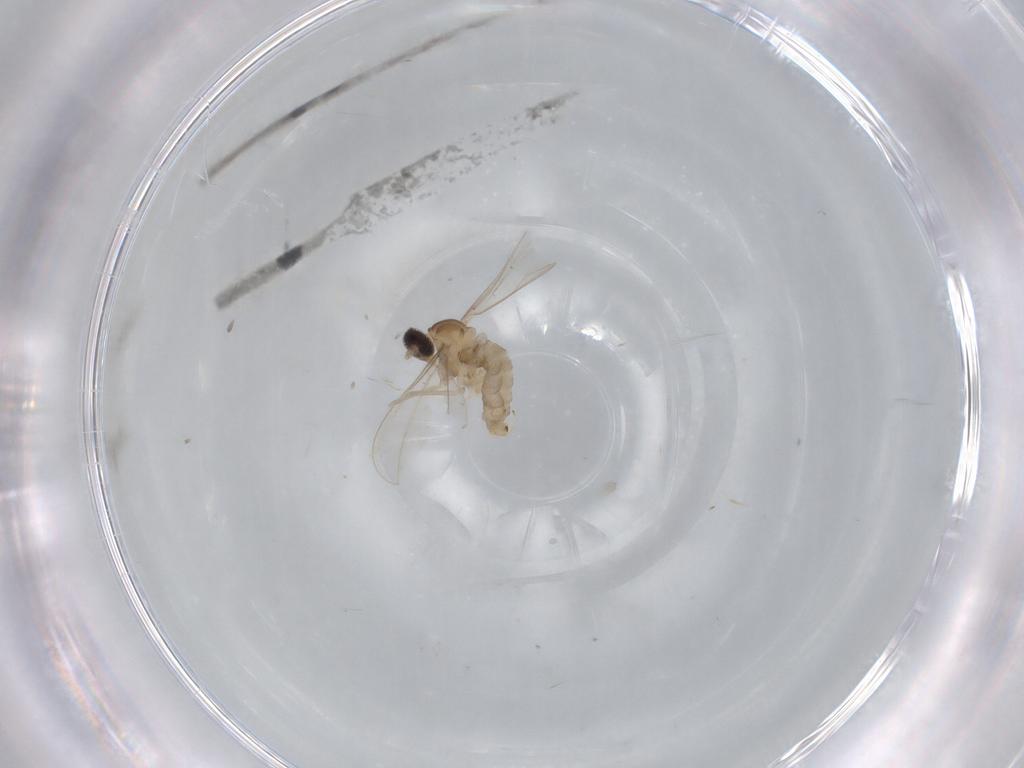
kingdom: Animalia
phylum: Arthropoda
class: Insecta
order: Diptera
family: Cecidomyiidae
